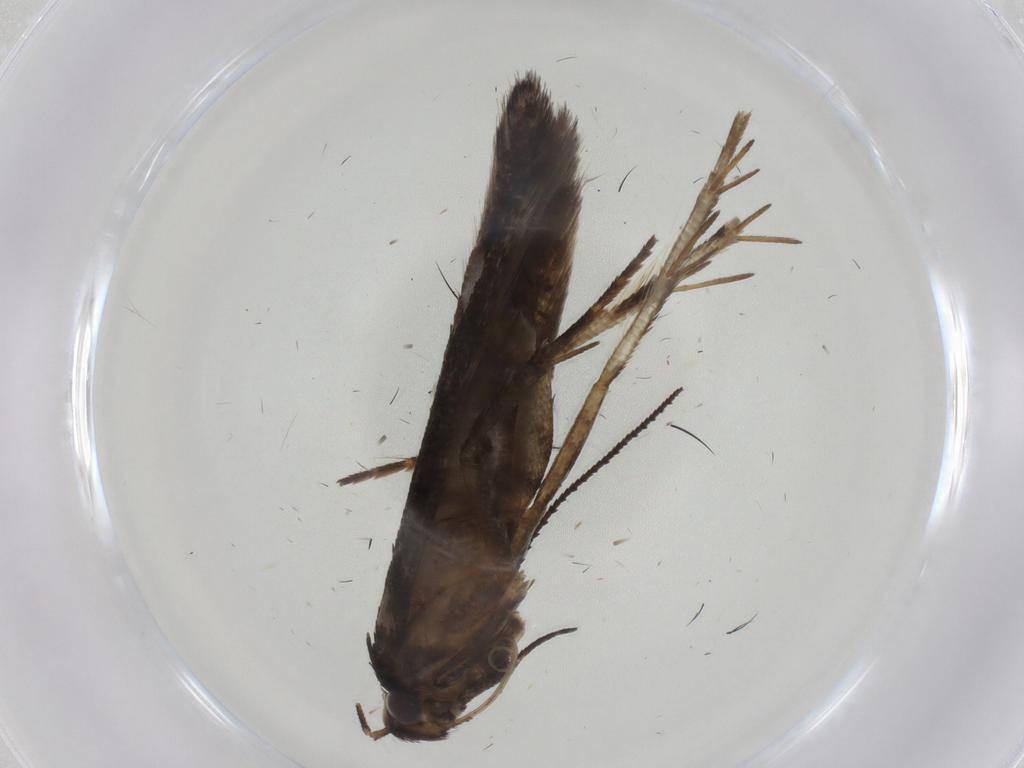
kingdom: Animalia
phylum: Arthropoda
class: Insecta
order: Lepidoptera
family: Gelechiidae
